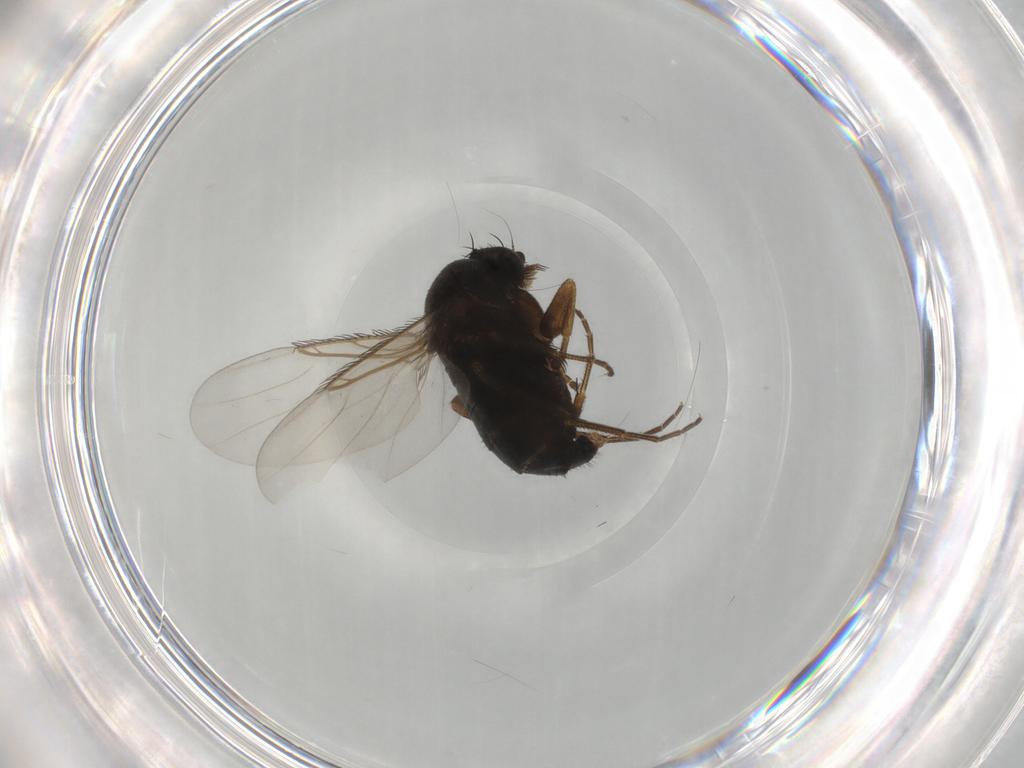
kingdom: Animalia
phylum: Arthropoda
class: Insecta
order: Diptera
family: Phoridae
